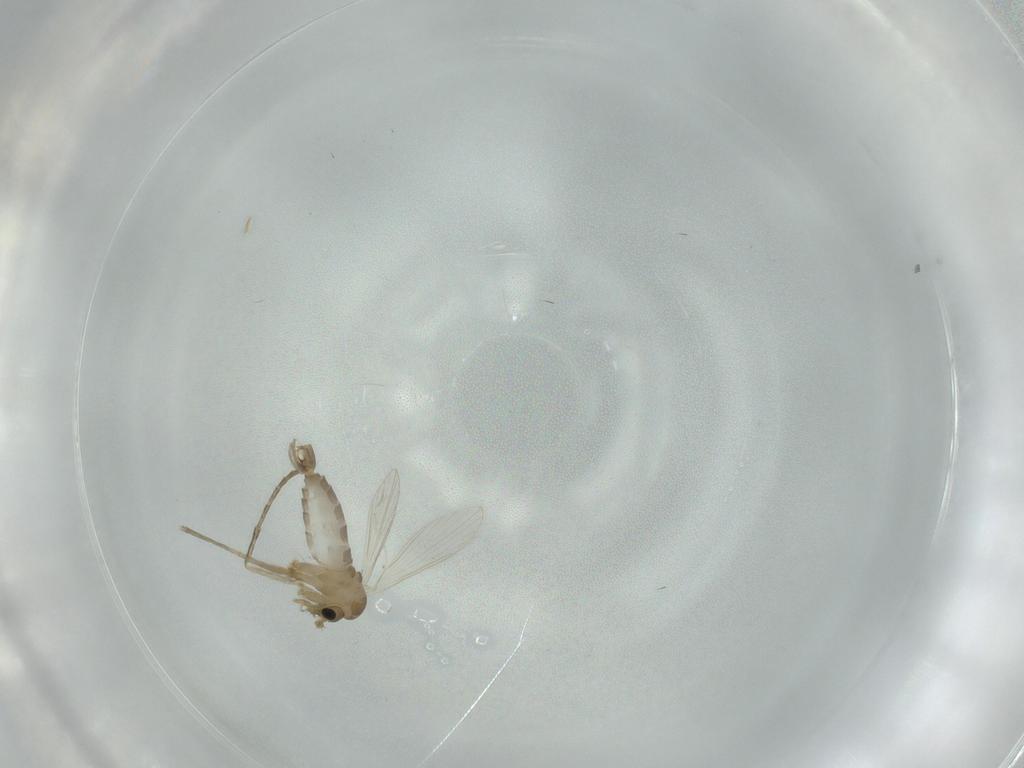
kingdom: Animalia
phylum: Arthropoda
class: Insecta
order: Diptera
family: Psychodidae
